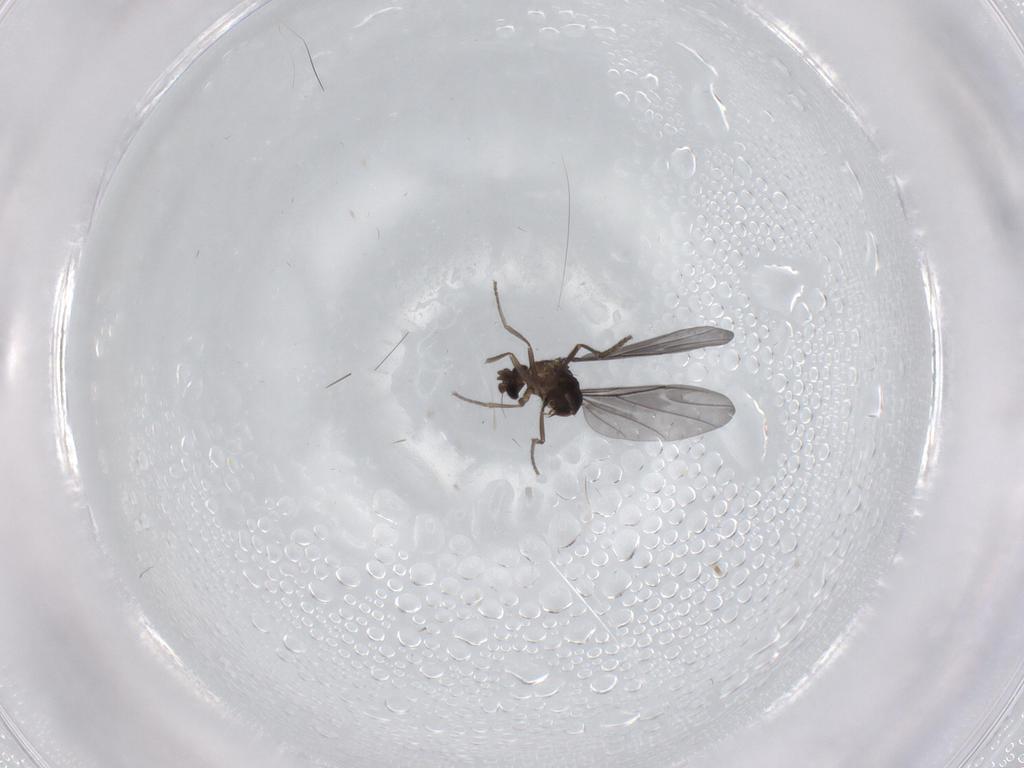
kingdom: Animalia
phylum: Arthropoda
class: Insecta
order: Diptera
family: Phoridae
